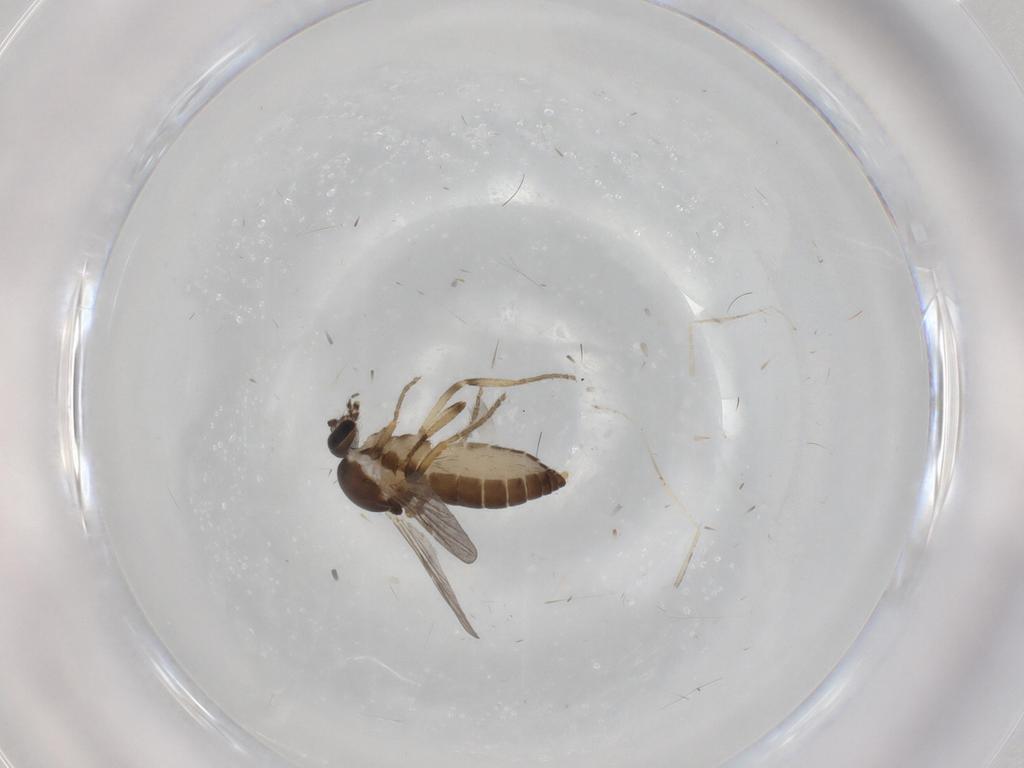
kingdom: Animalia
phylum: Arthropoda
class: Insecta
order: Diptera
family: Ceratopogonidae
